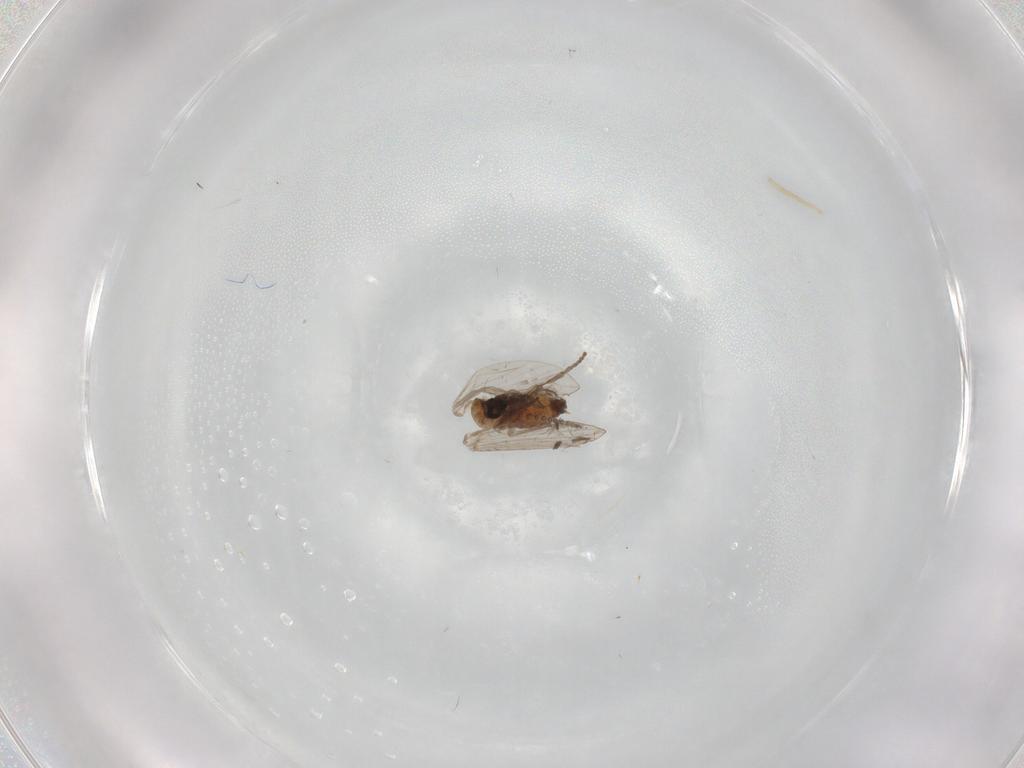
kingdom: Animalia
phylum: Arthropoda
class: Insecta
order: Diptera
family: Psychodidae
